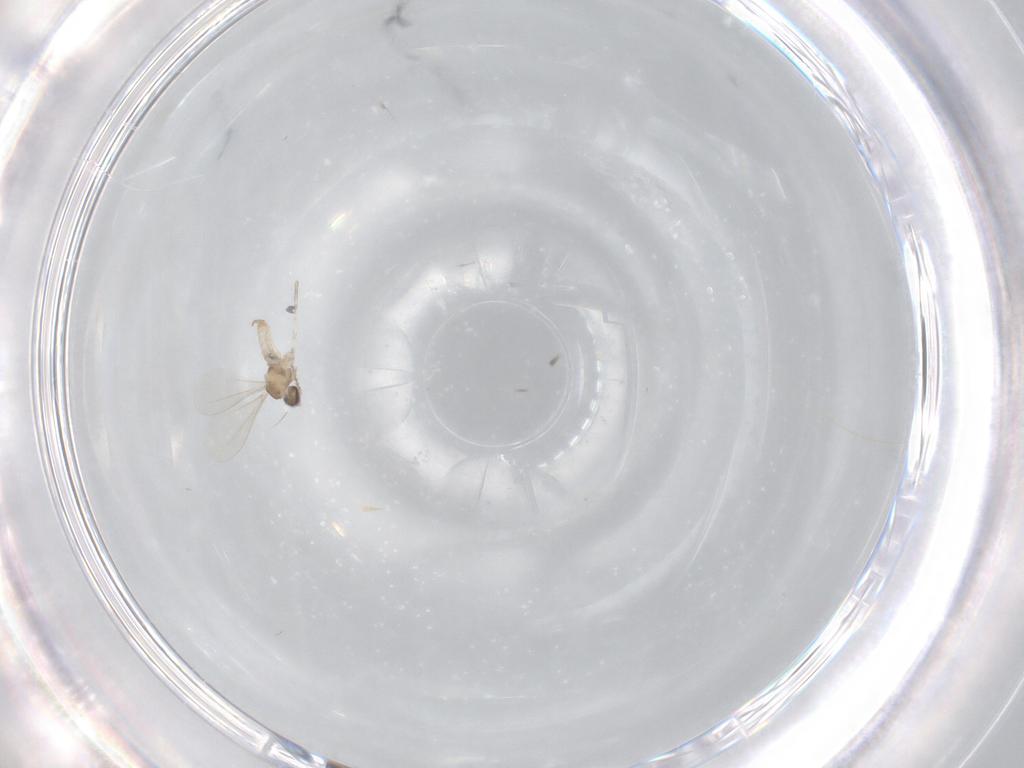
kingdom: Animalia
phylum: Arthropoda
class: Insecta
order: Diptera
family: Cecidomyiidae
